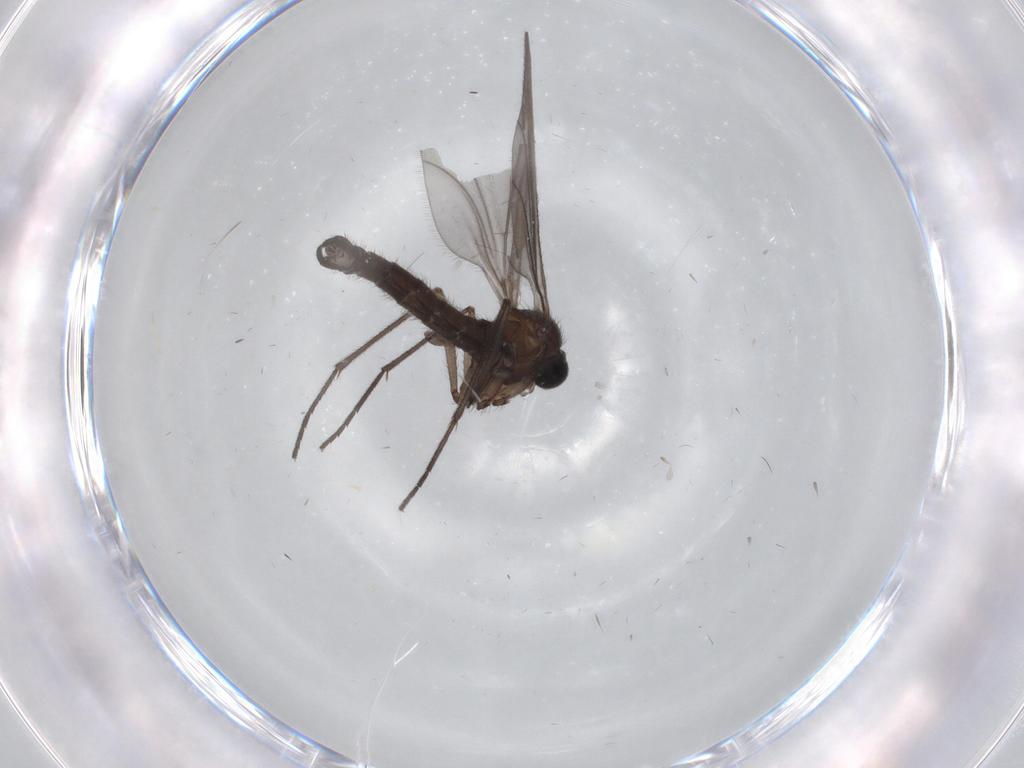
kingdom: Animalia
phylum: Arthropoda
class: Insecta
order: Diptera
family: Sciaridae
